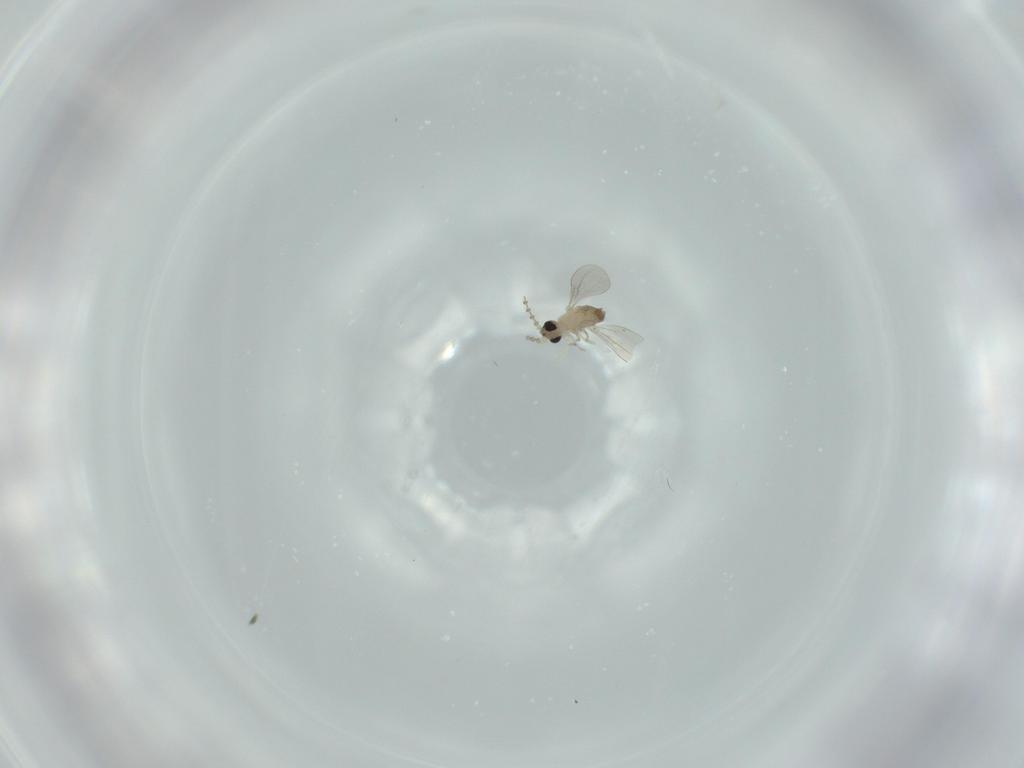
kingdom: Animalia
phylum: Arthropoda
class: Insecta
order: Diptera
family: Cecidomyiidae
